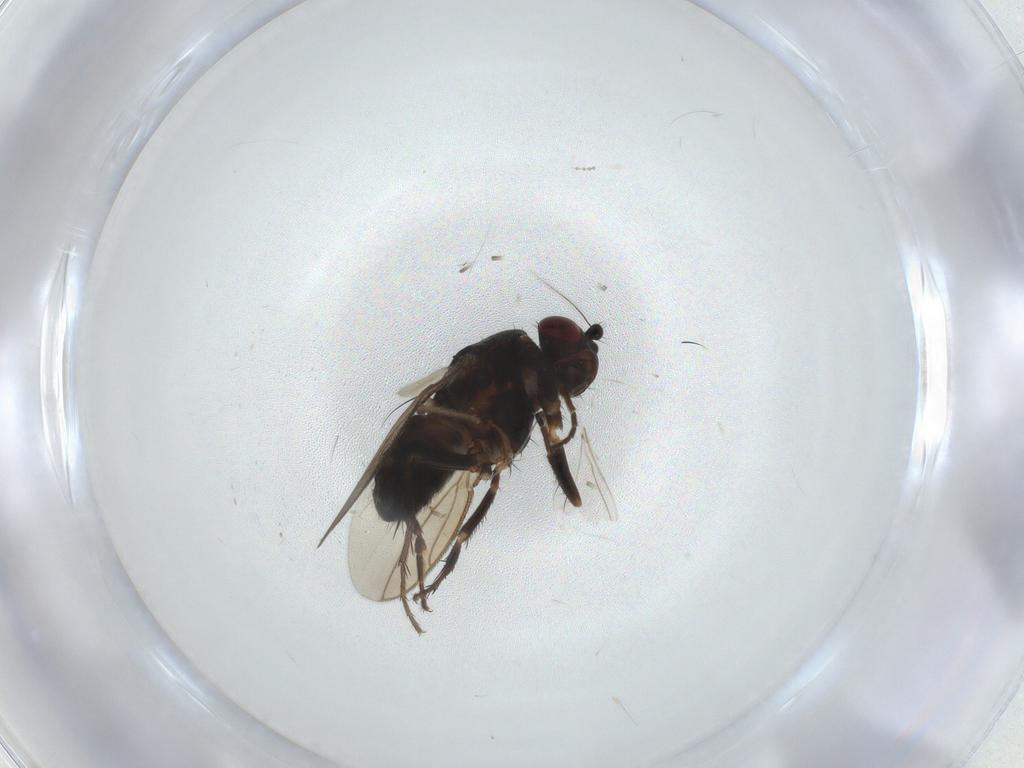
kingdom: Animalia
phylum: Arthropoda
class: Insecta
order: Diptera
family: Sphaeroceridae
